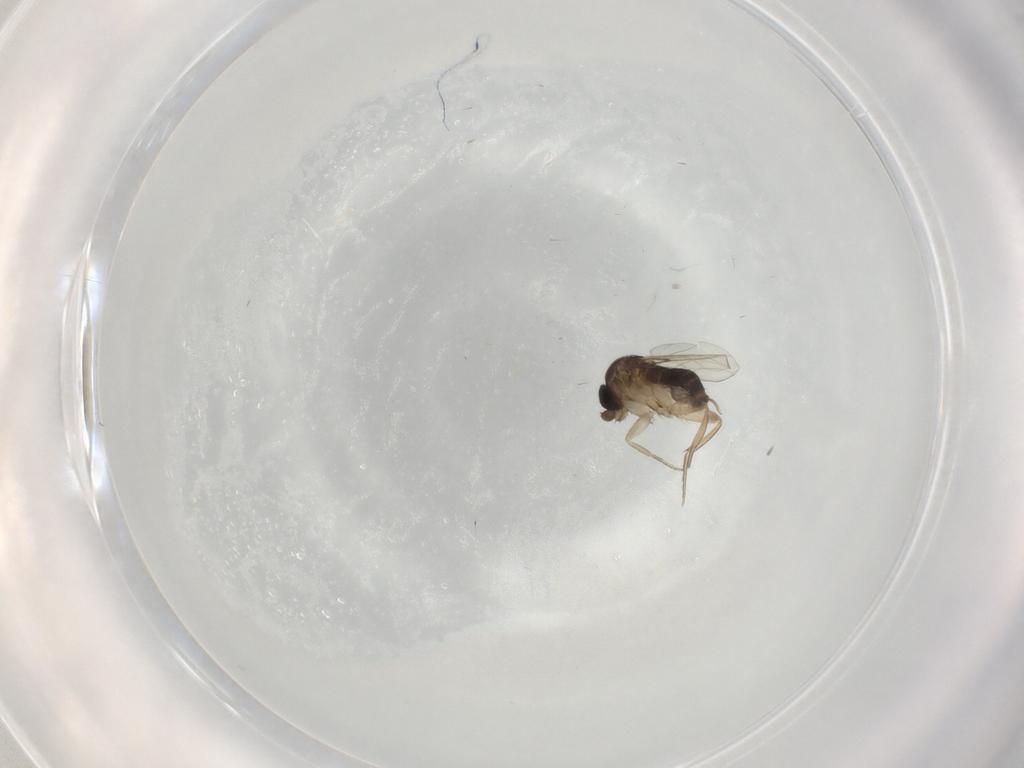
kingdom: Animalia
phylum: Arthropoda
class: Insecta
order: Diptera
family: Phoridae
